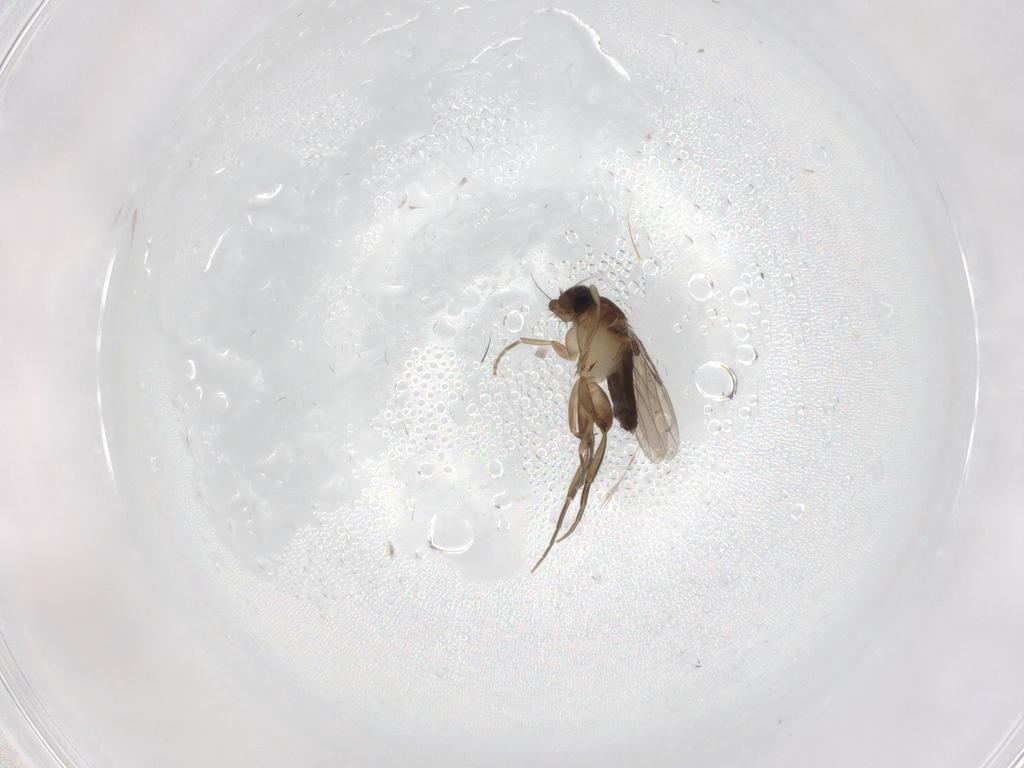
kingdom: Animalia
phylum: Arthropoda
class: Insecta
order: Diptera
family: Phoridae
